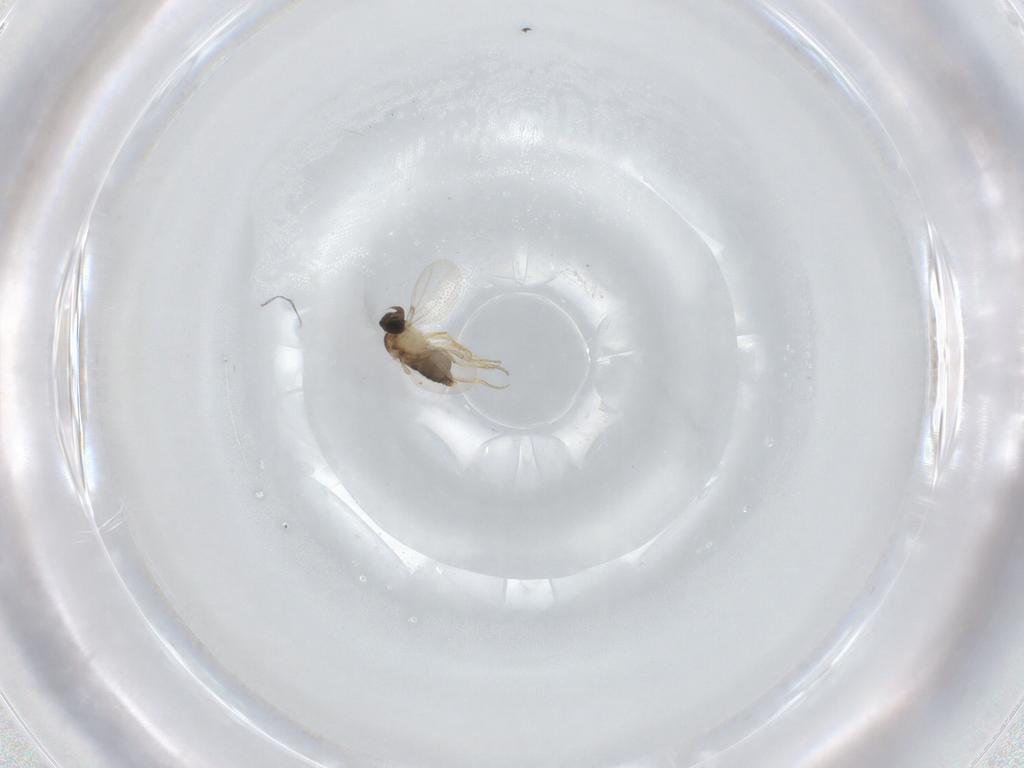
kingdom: Animalia
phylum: Arthropoda
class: Insecta
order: Diptera
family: Phoridae
